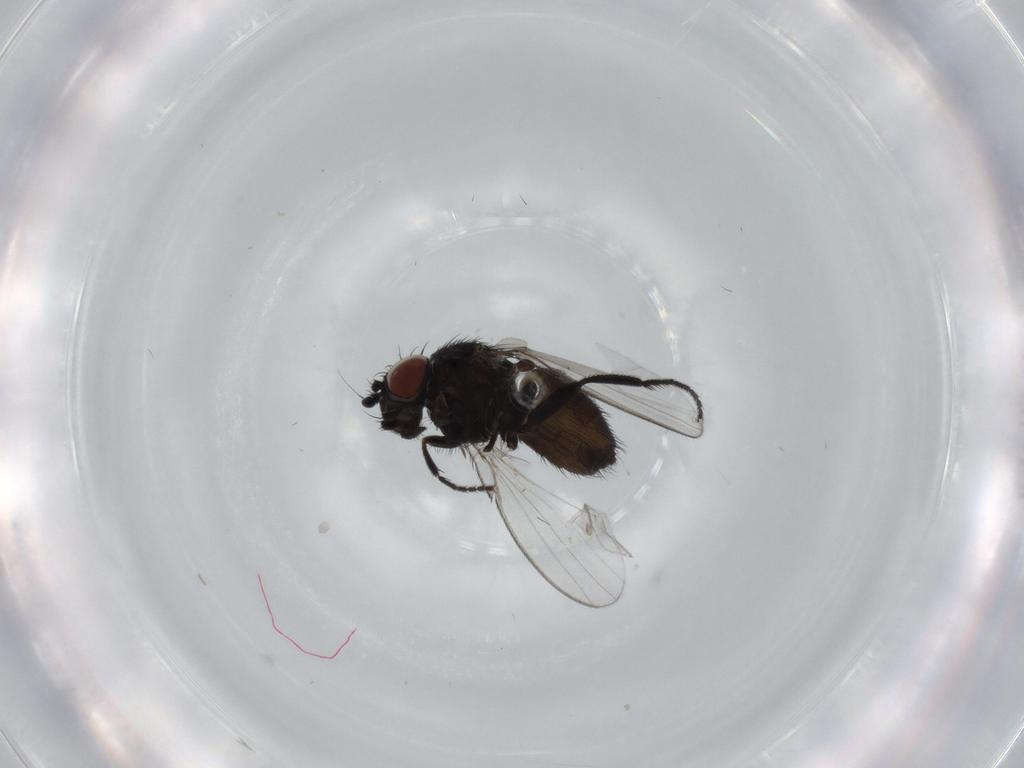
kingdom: Animalia
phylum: Arthropoda
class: Insecta
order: Diptera
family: Milichiidae
